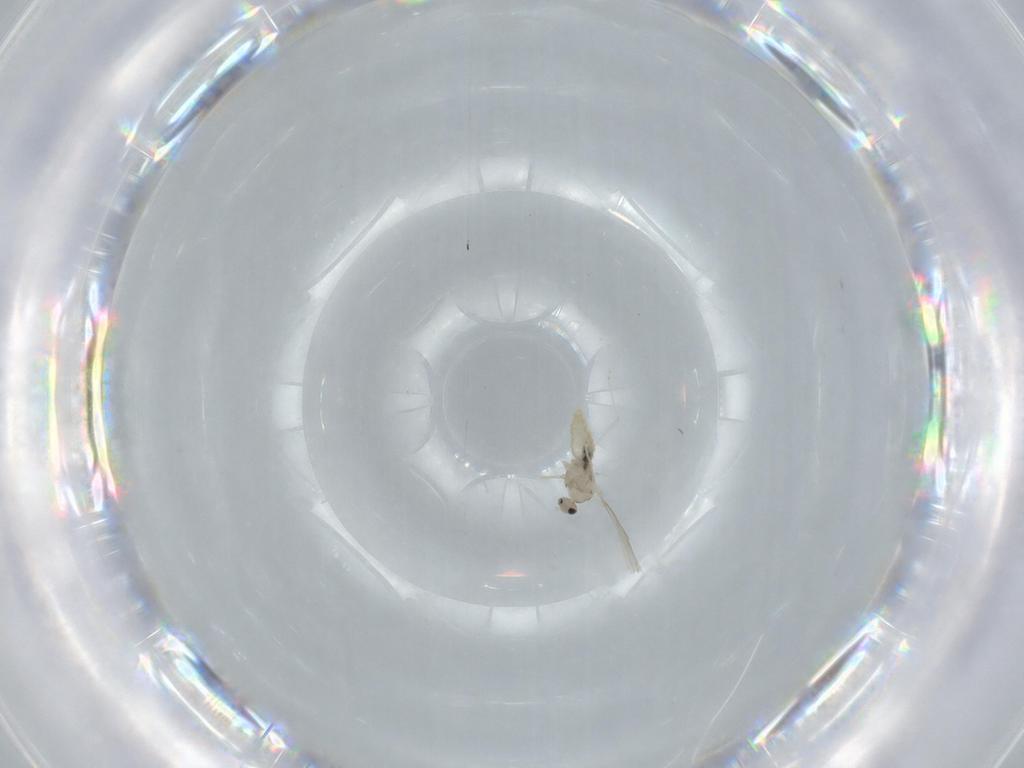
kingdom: Animalia
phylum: Arthropoda
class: Insecta
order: Diptera
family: Cecidomyiidae
